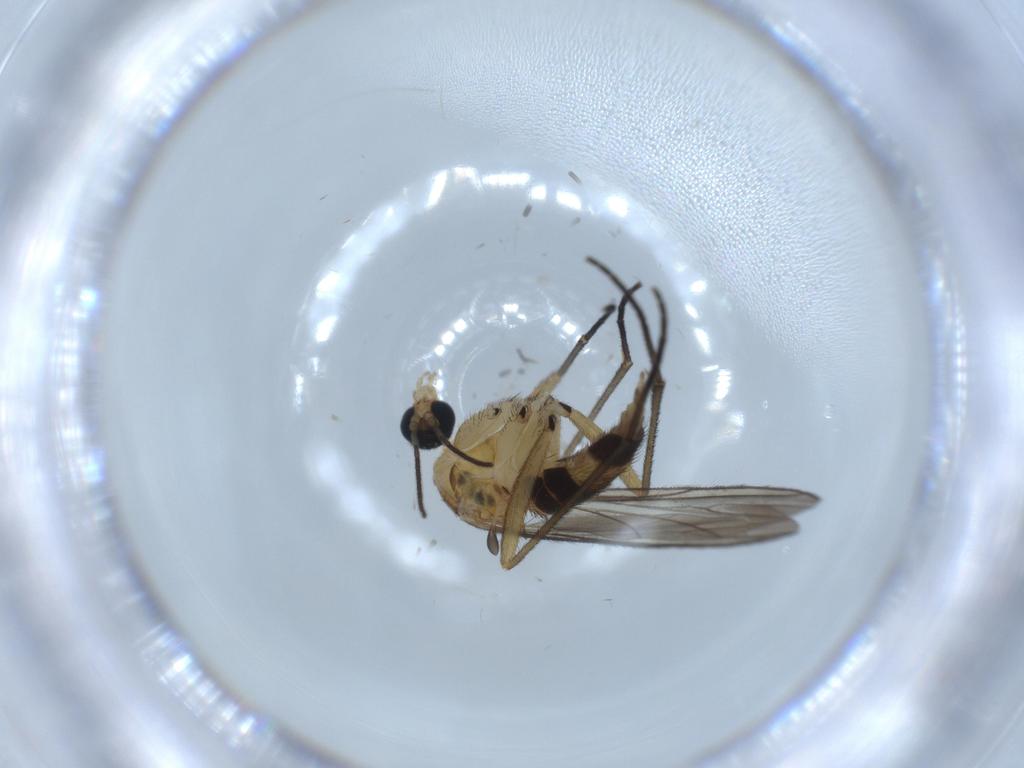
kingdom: Animalia
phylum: Arthropoda
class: Insecta
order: Diptera
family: Sciaridae
